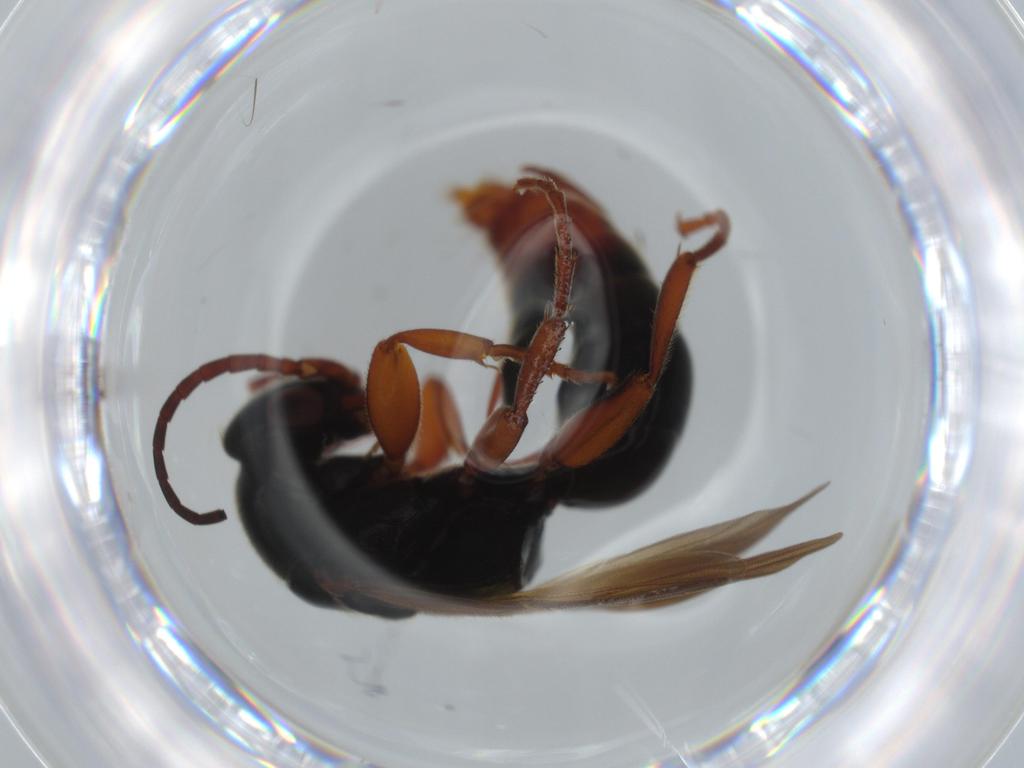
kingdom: Animalia
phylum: Arthropoda
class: Insecta
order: Hymenoptera
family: Bethylidae
